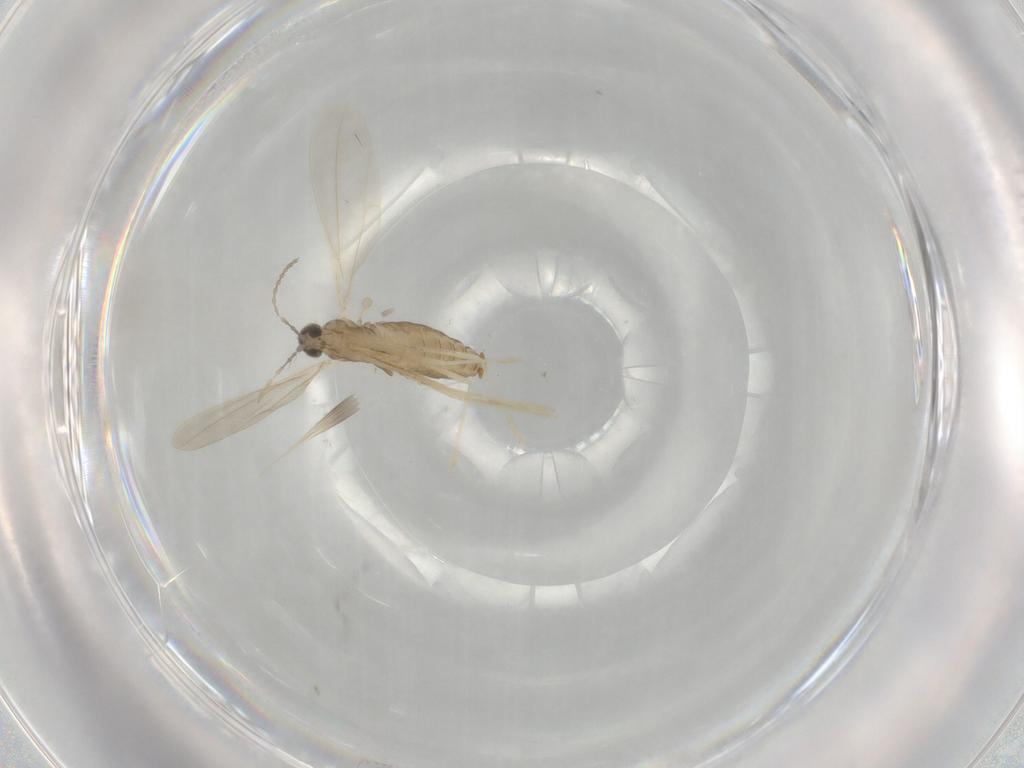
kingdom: Animalia
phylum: Arthropoda
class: Insecta
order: Diptera
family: Cecidomyiidae
